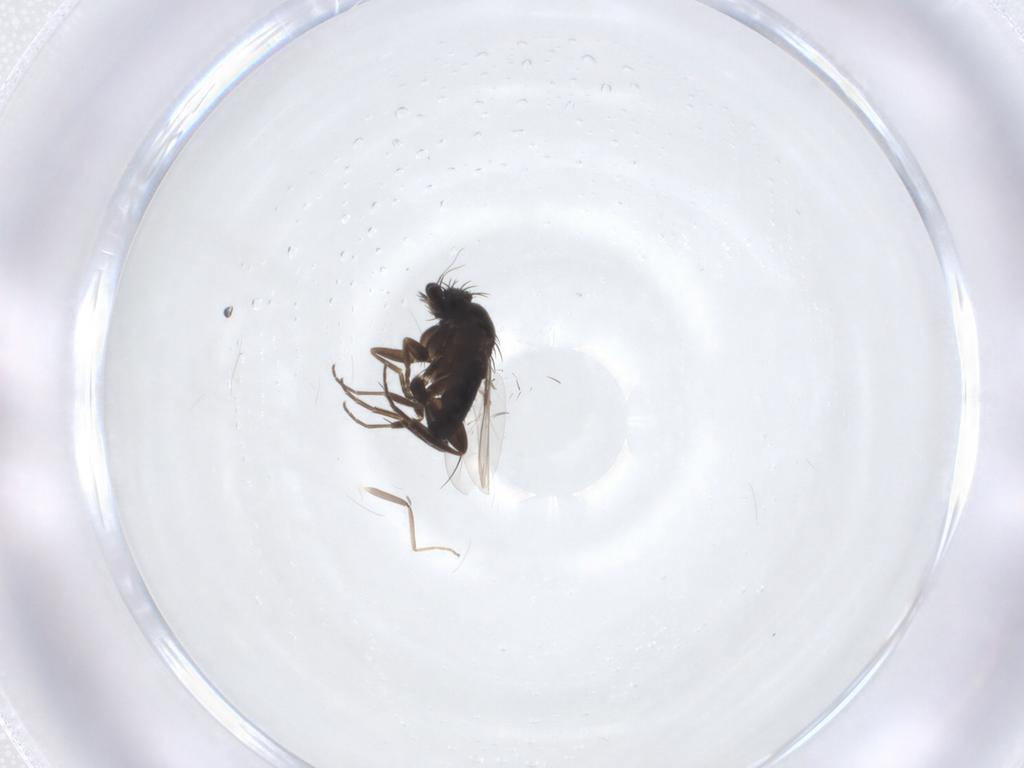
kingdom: Animalia
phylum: Arthropoda
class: Insecta
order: Diptera
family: Phoridae
